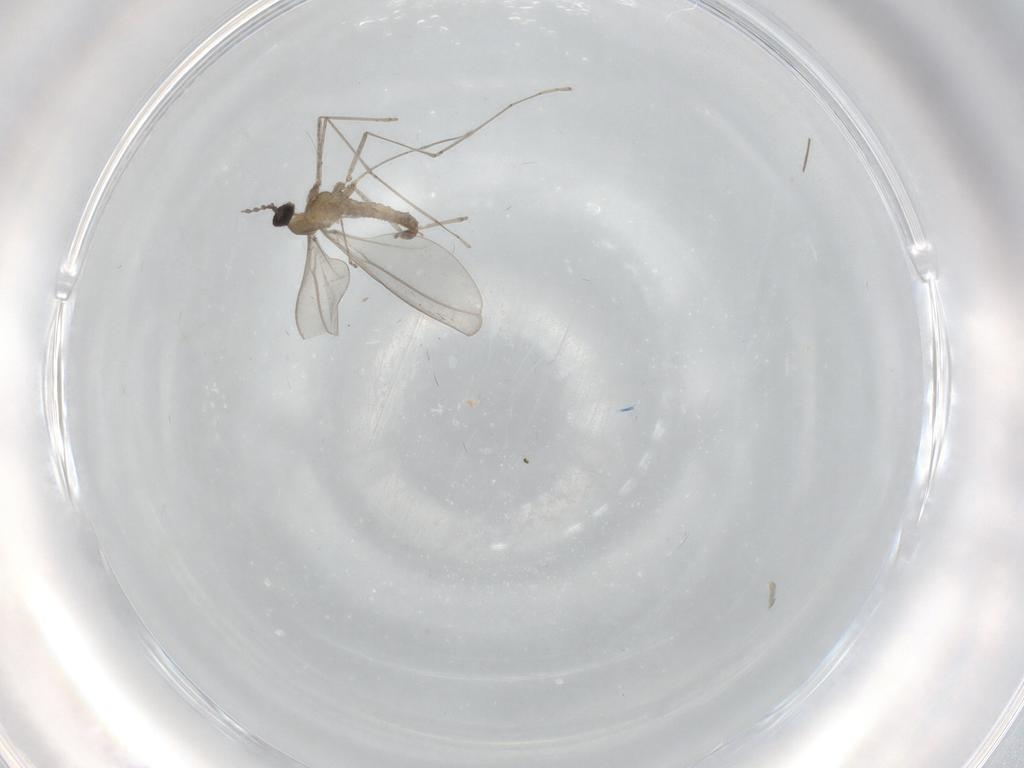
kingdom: Animalia
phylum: Arthropoda
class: Insecta
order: Diptera
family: Cecidomyiidae
